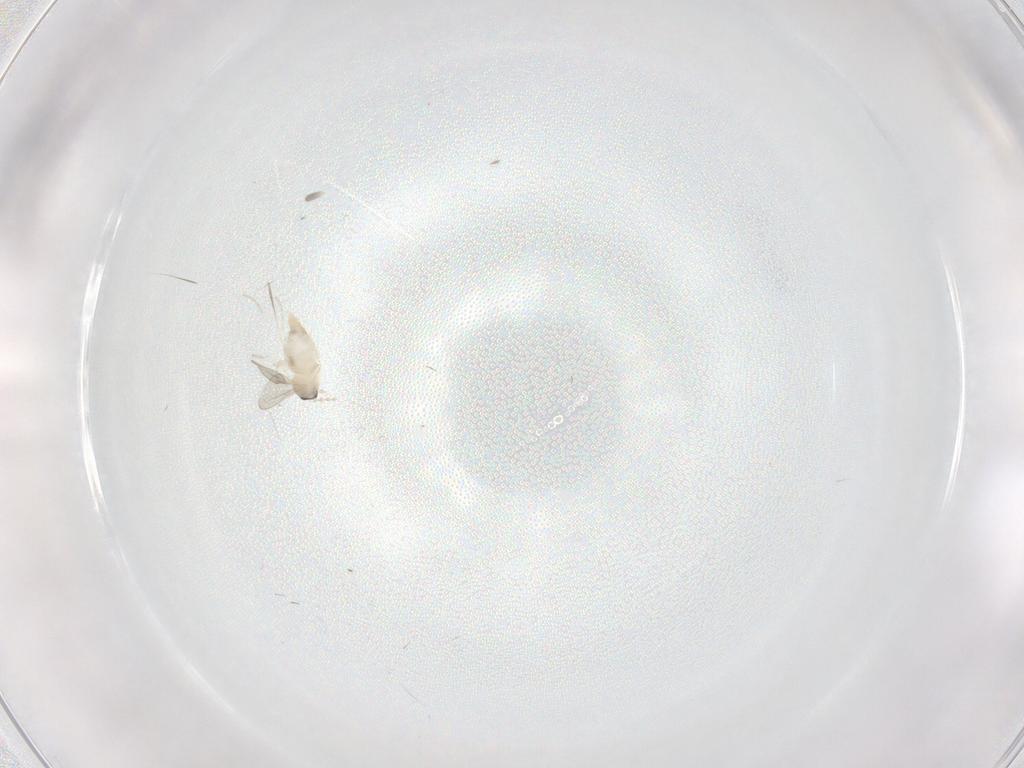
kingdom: Animalia
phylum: Arthropoda
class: Insecta
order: Diptera
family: Cecidomyiidae
